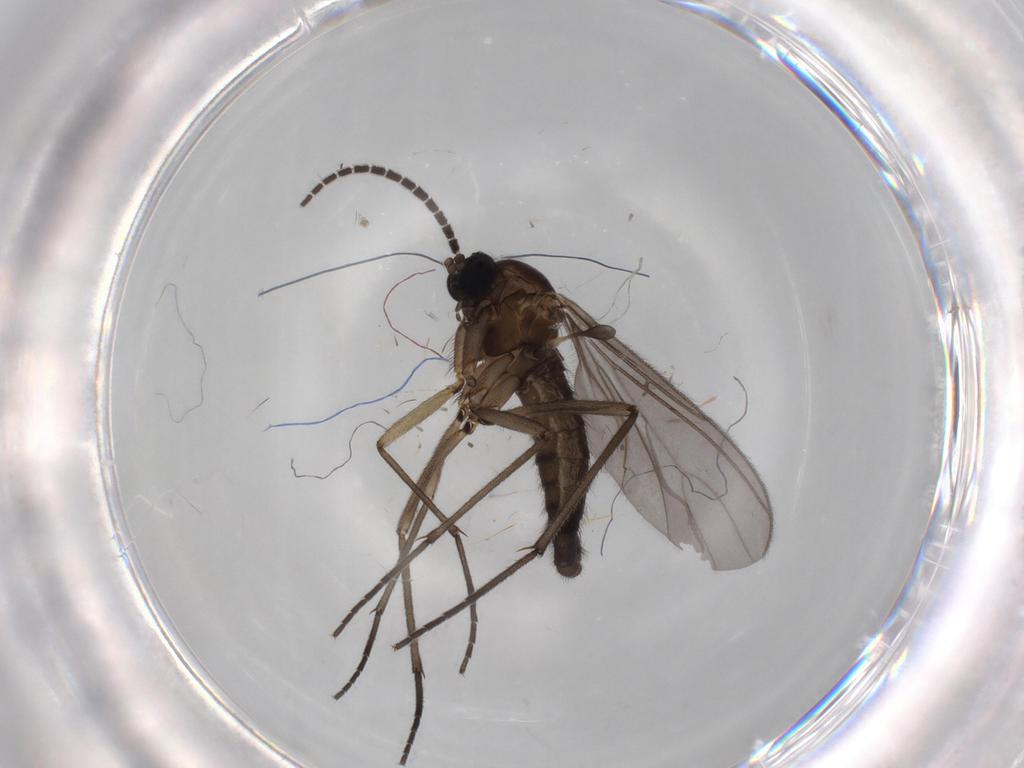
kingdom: Animalia
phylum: Arthropoda
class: Insecta
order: Diptera
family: Sciaridae
